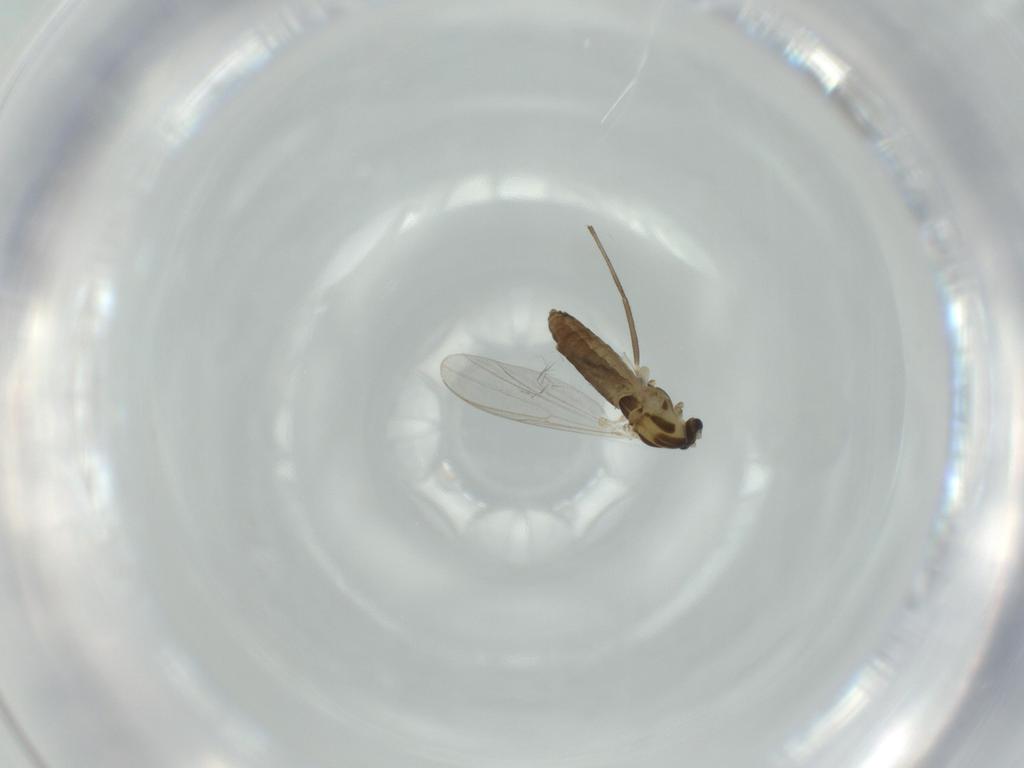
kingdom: Animalia
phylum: Arthropoda
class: Insecta
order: Diptera
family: Chironomidae
